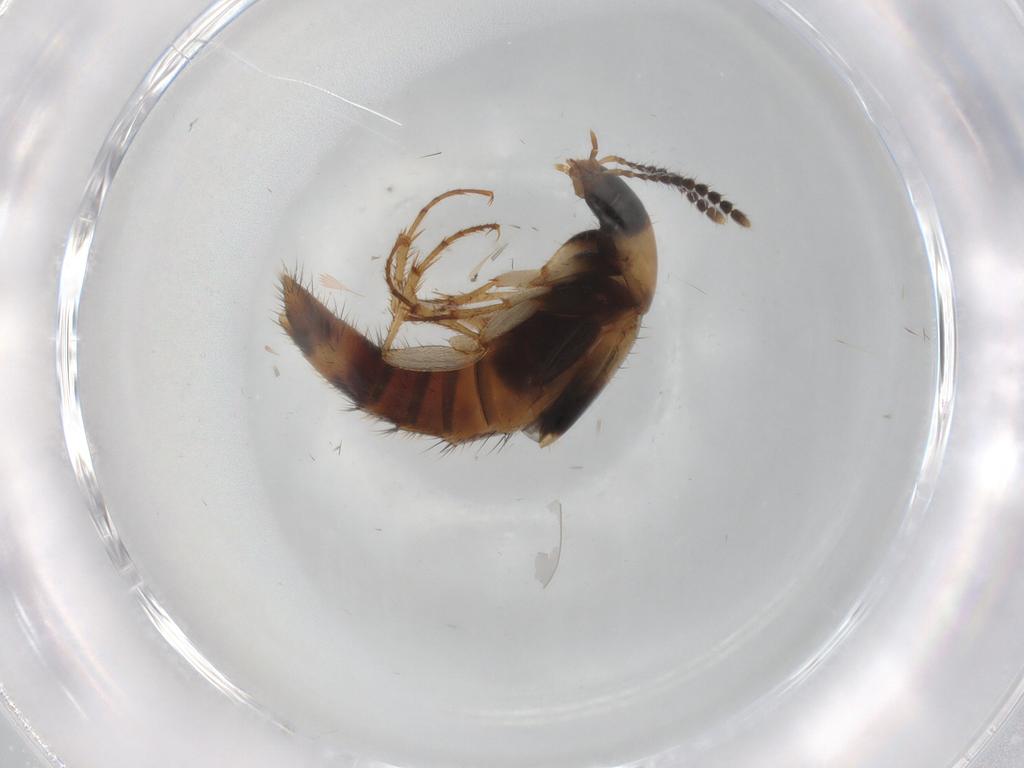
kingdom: Animalia
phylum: Arthropoda
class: Insecta
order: Coleoptera
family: Staphylinidae
